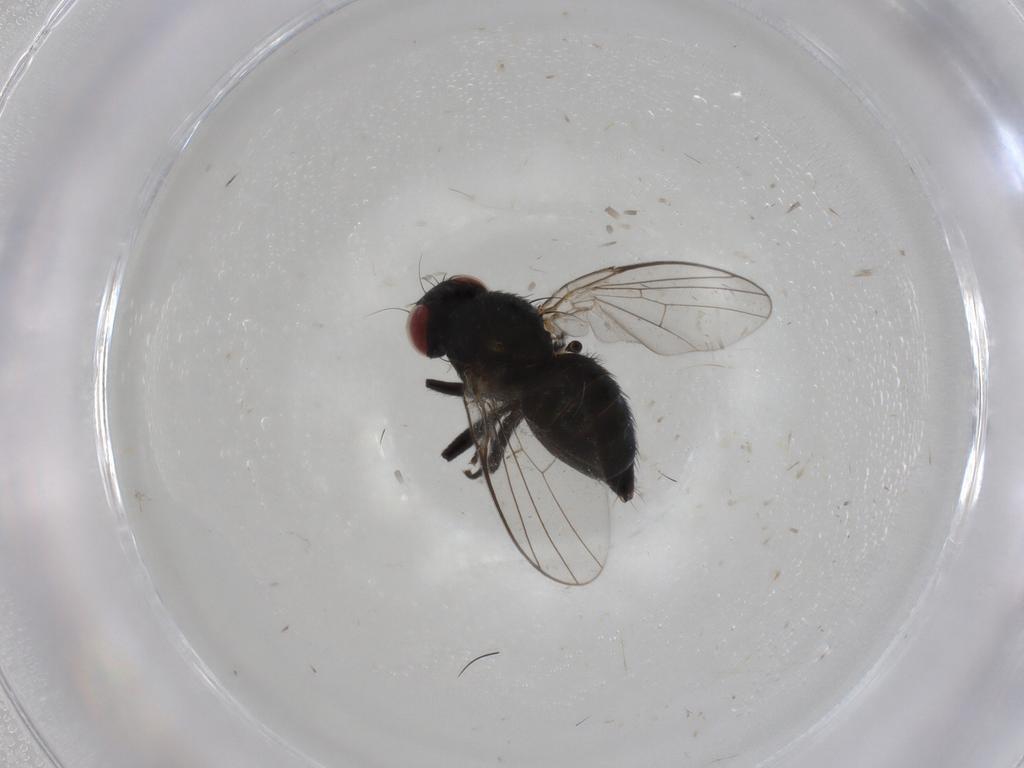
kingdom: Animalia
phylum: Arthropoda
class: Insecta
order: Diptera
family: Agromyzidae
